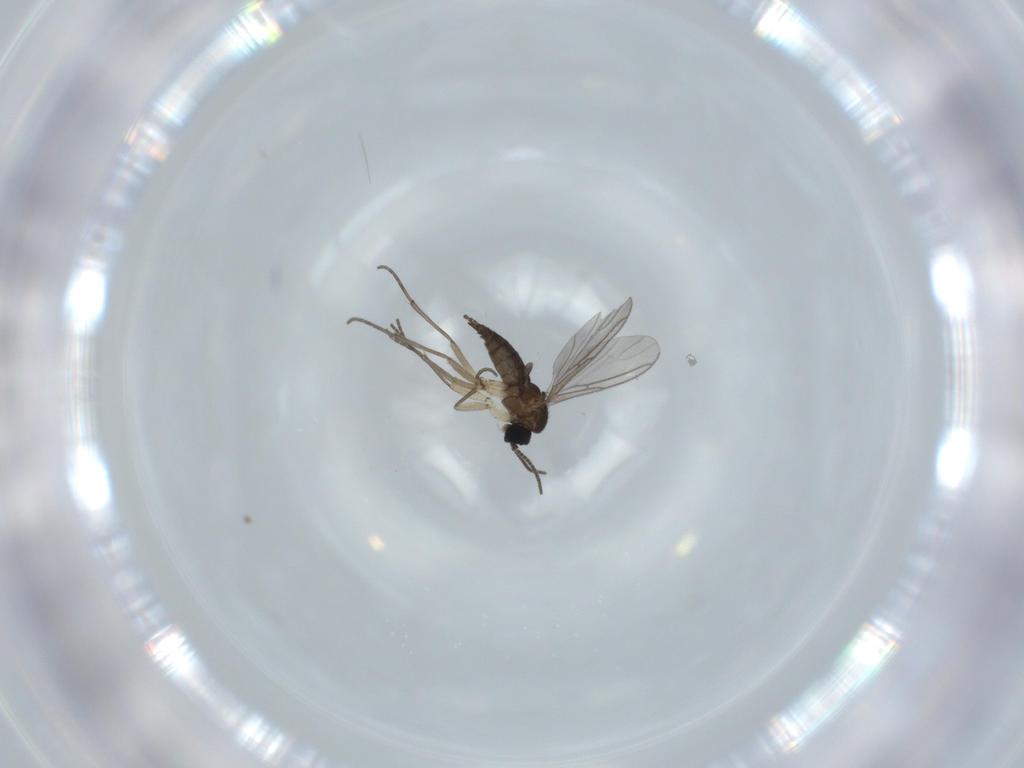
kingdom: Animalia
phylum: Arthropoda
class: Insecta
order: Diptera
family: Sciaridae
